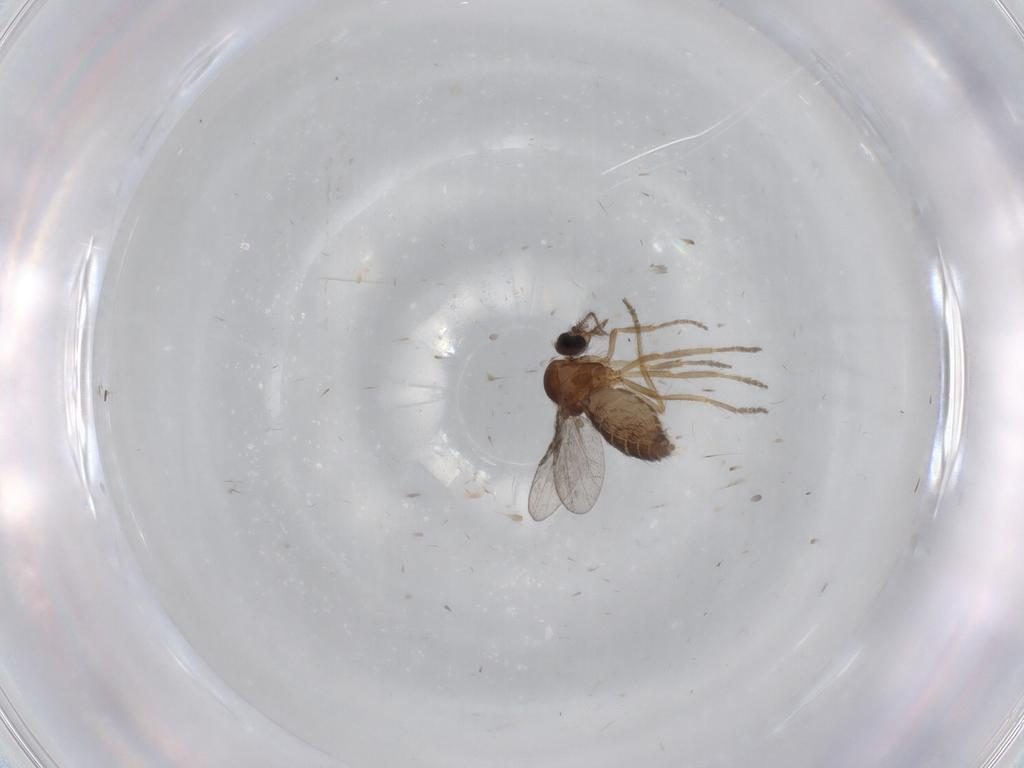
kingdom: Animalia
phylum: Arthropoda
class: Insecta
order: Diptera
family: Ceratopogonidae
